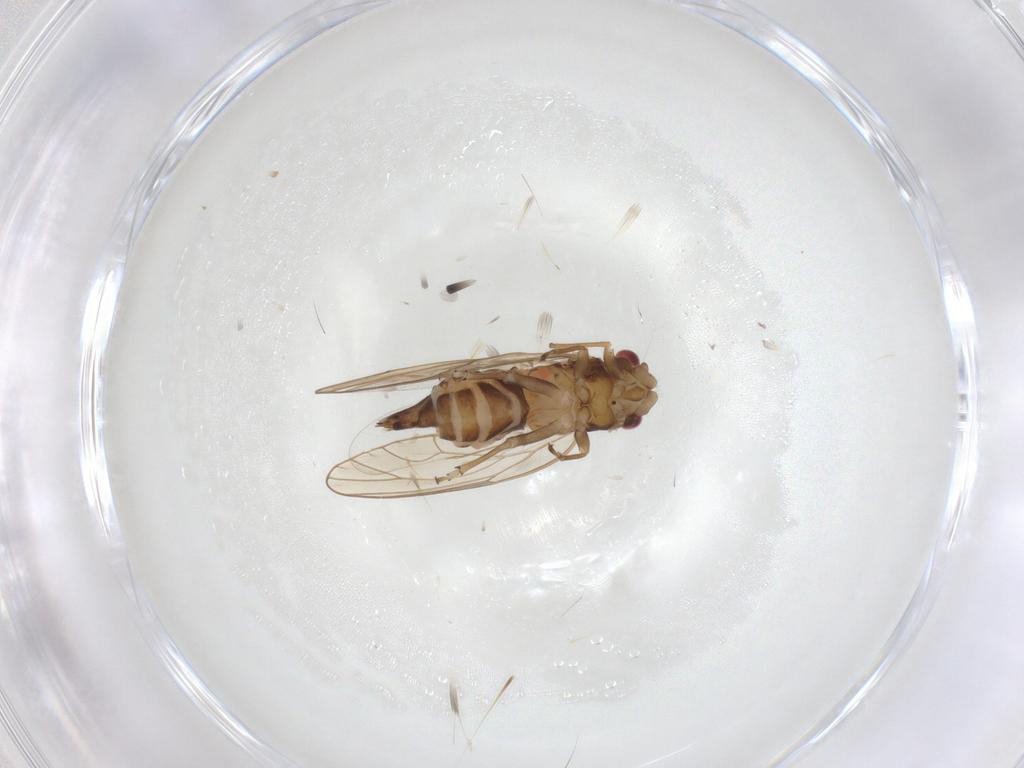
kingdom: Animalia
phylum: Arthropoda
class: Insecta
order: Hemiptera
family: Psyllidae
